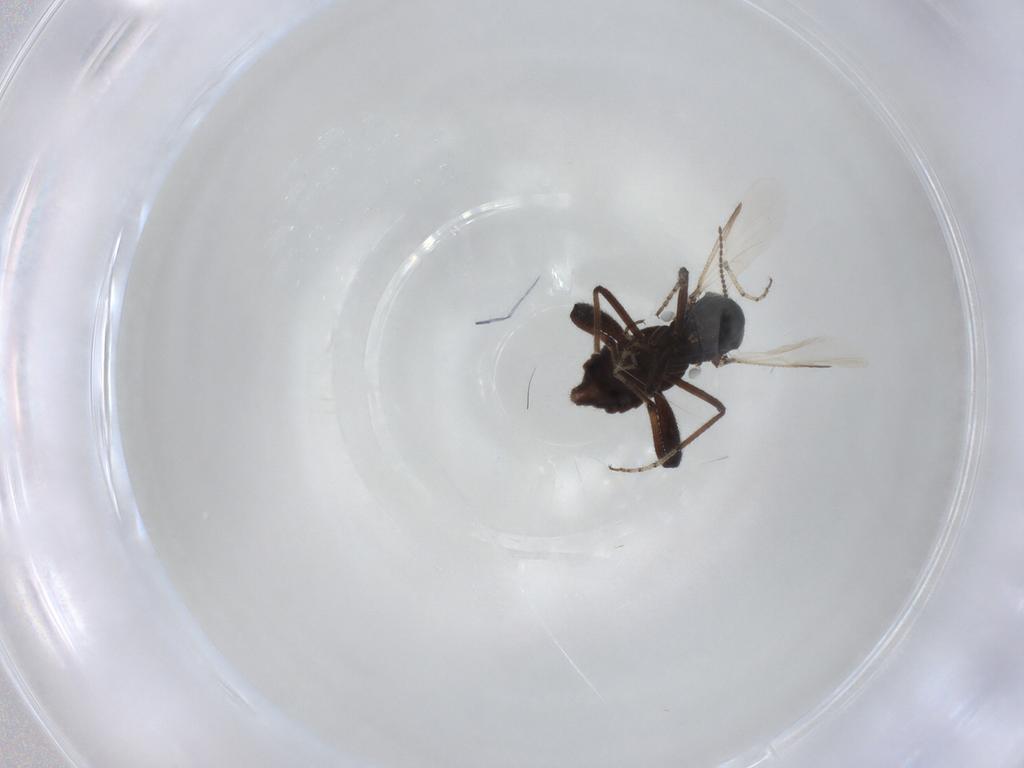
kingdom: Animalia
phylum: Arthropoda
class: Insecta
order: Diptera
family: Ceratopogonidae
